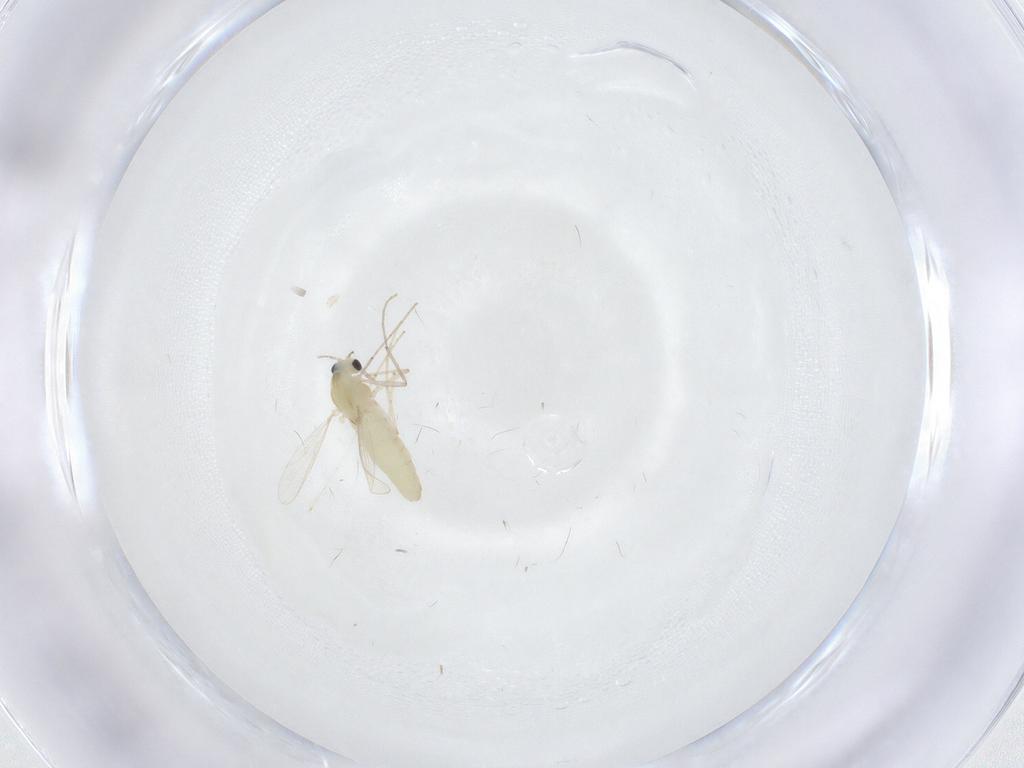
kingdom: Animalia
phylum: Arthropoda
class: Insecta
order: Diptera
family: Chironomidae
